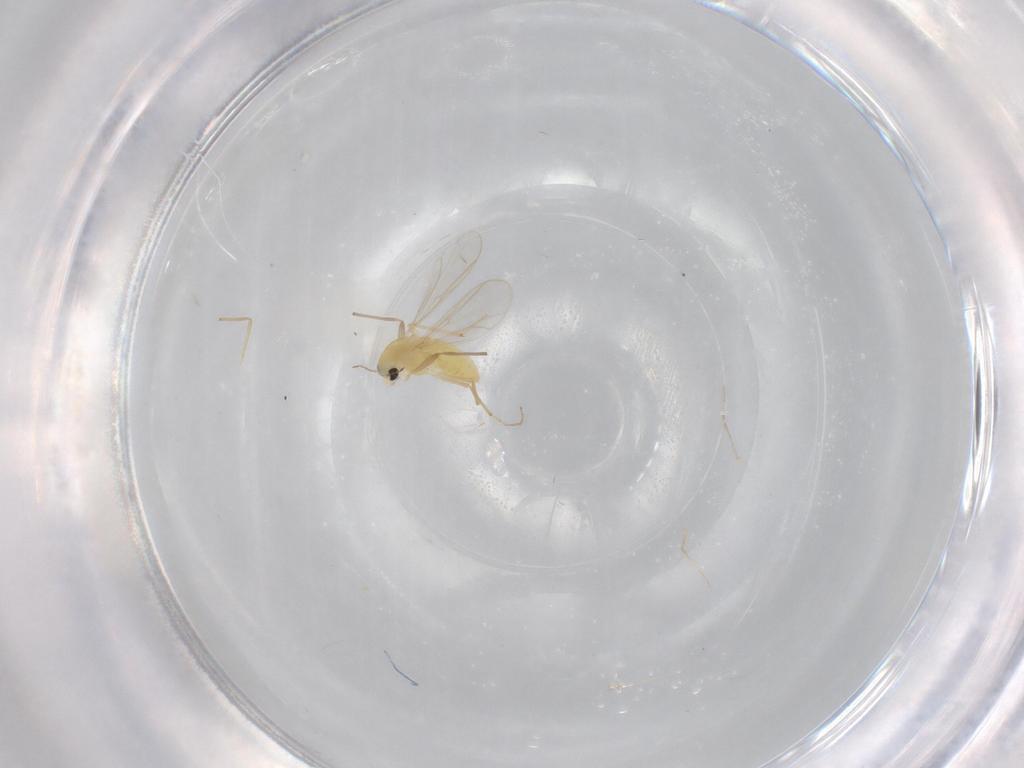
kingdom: Animalia
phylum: Arthropoda
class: Insecta
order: Diptera
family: Chironomidae
